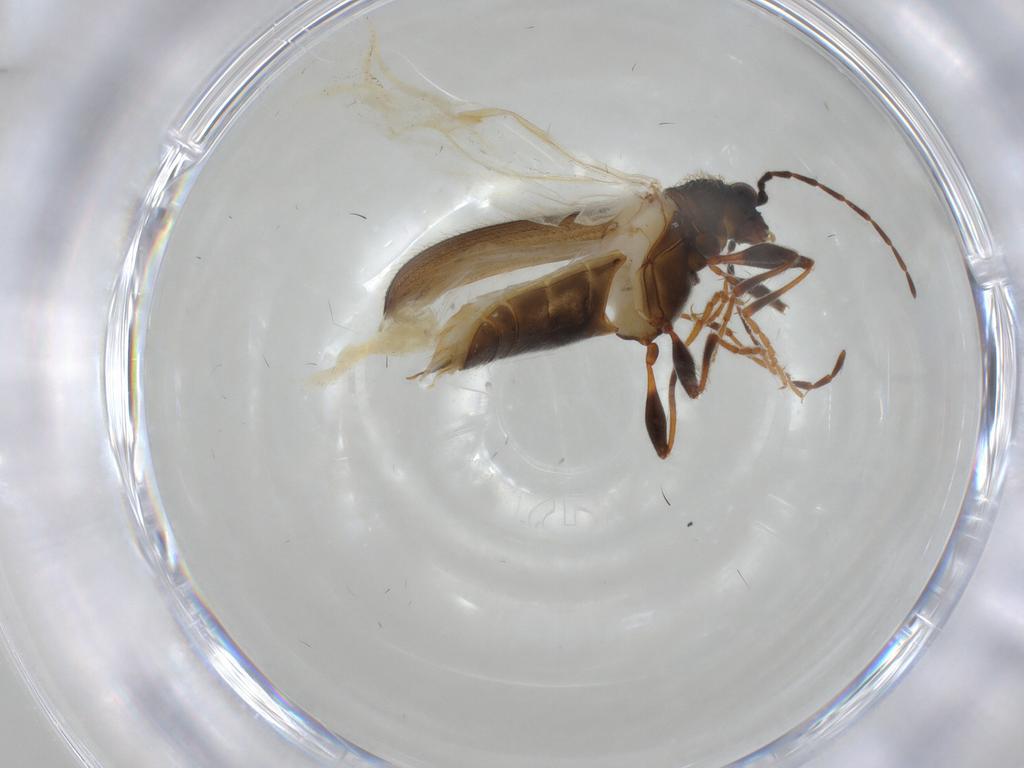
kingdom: Animalia
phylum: Arthropoda
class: Insecta
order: Coleoptera
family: Ptinidae
